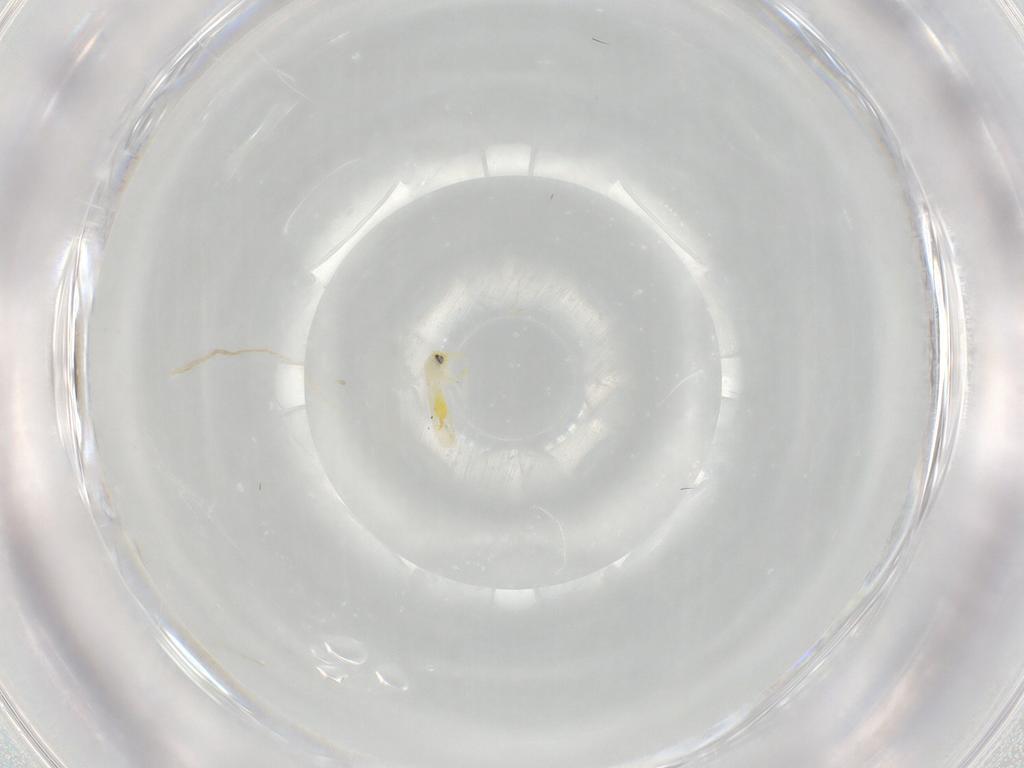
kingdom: Animalia
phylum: Arthropoda
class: Insecta
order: Hemiptera
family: Aleyrodidae
